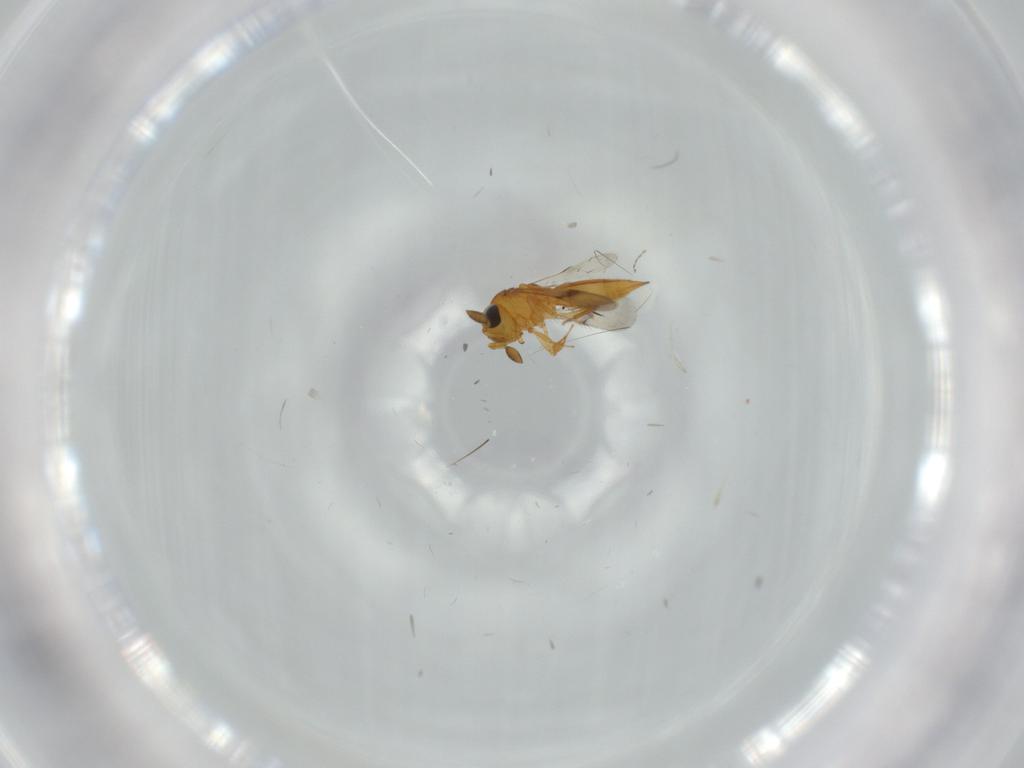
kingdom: Animalia
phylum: Arthropoda
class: Insecta
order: Hymenoptera
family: Scelionidae
